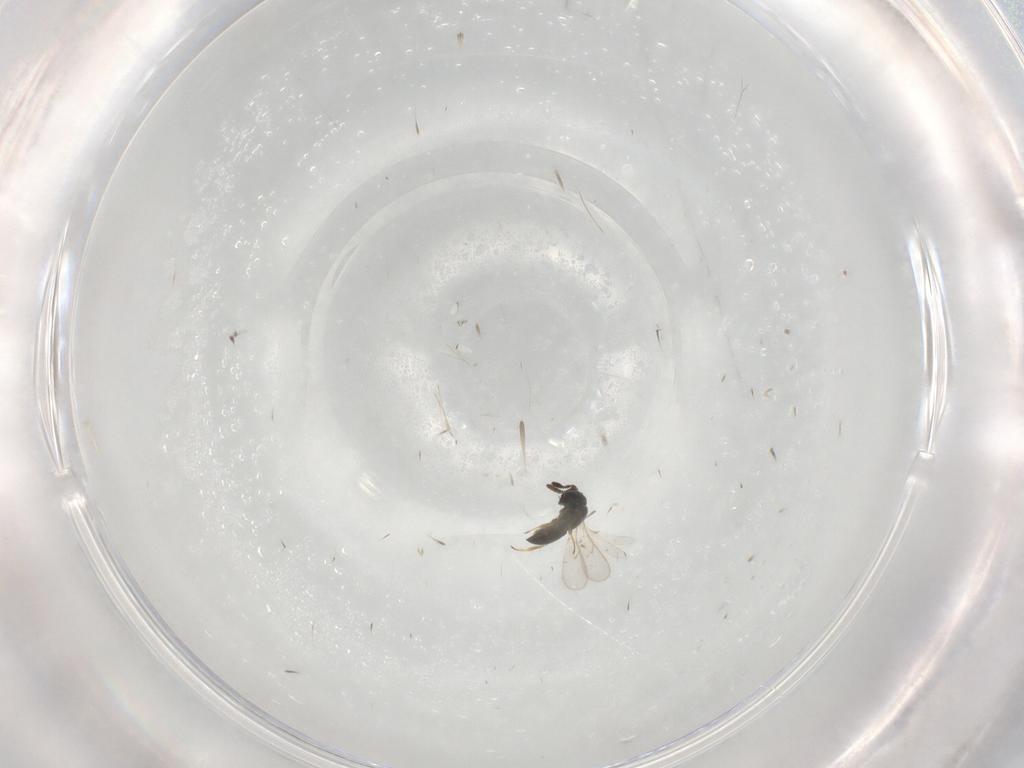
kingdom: Animalia
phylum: Arthropoda
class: Insecta
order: Hymenoptera
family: Scelionidae
